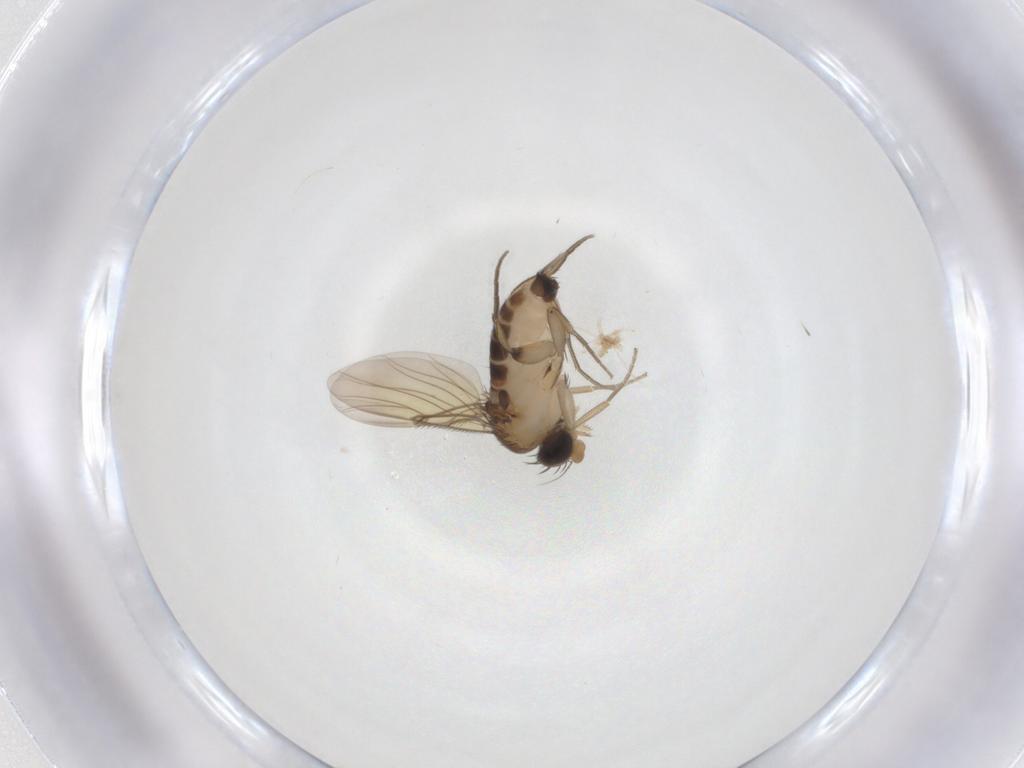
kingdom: Animalia
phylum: Arthropoda
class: Insecta
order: Diptera
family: Phoridae
